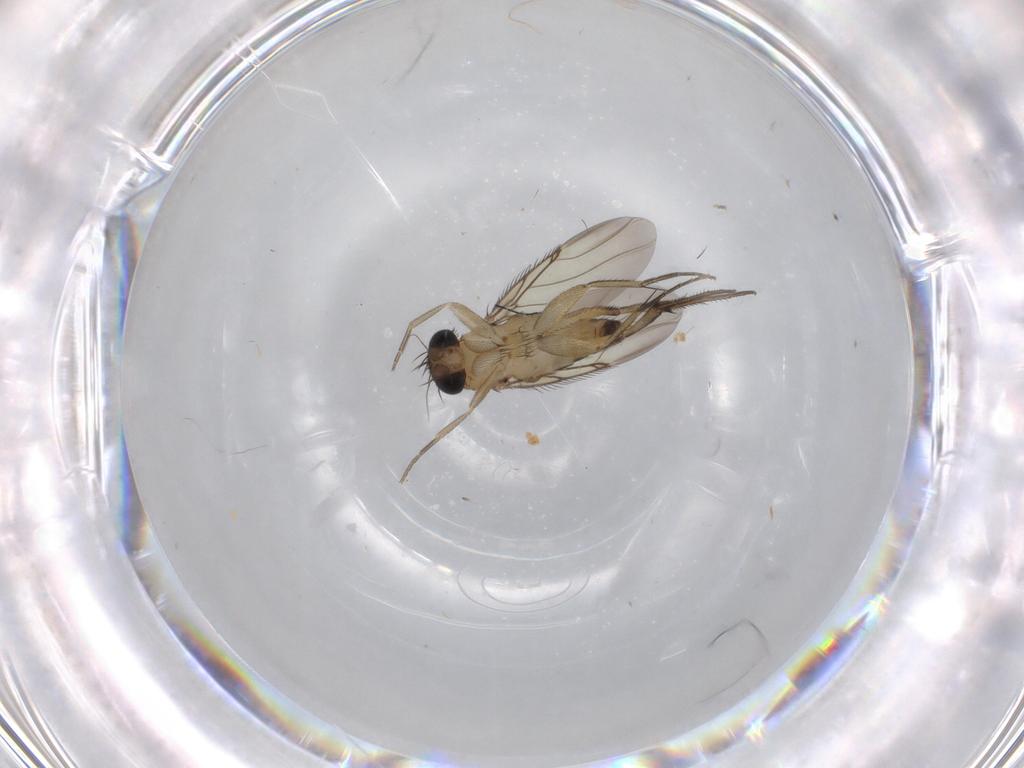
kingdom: Animalia
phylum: Arthropoda
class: Insecta
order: Diptera
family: Phoridae
